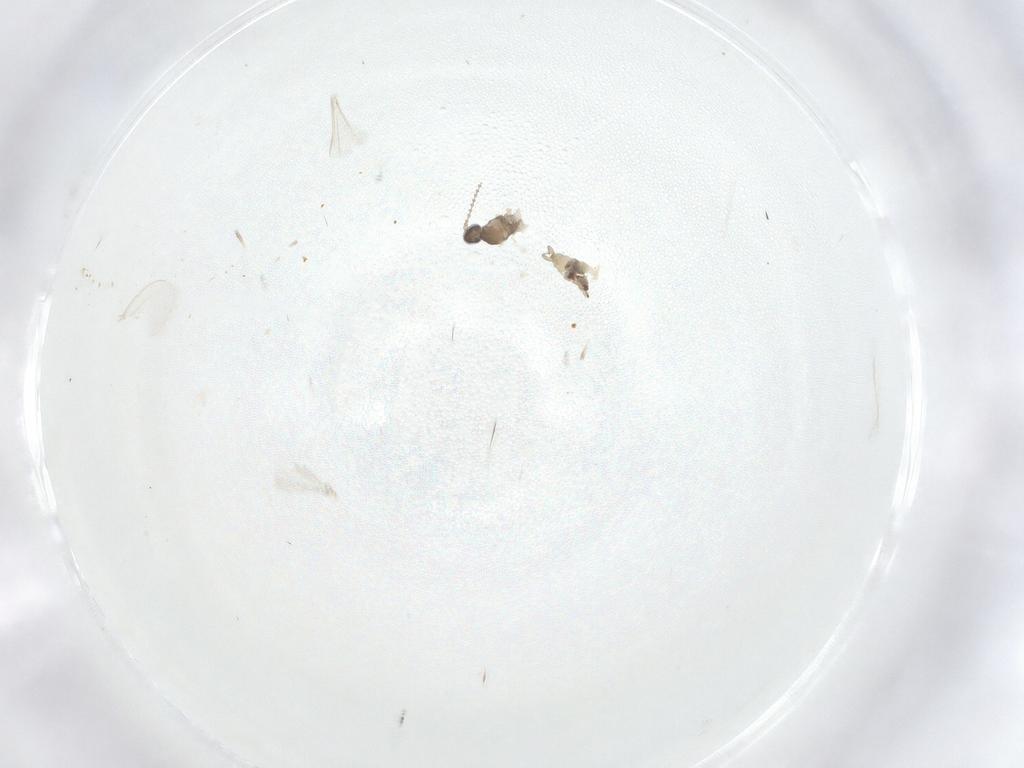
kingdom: Animalia
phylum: Arthropoda
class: Insecta
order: Diptera
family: Cecidomyiidae
